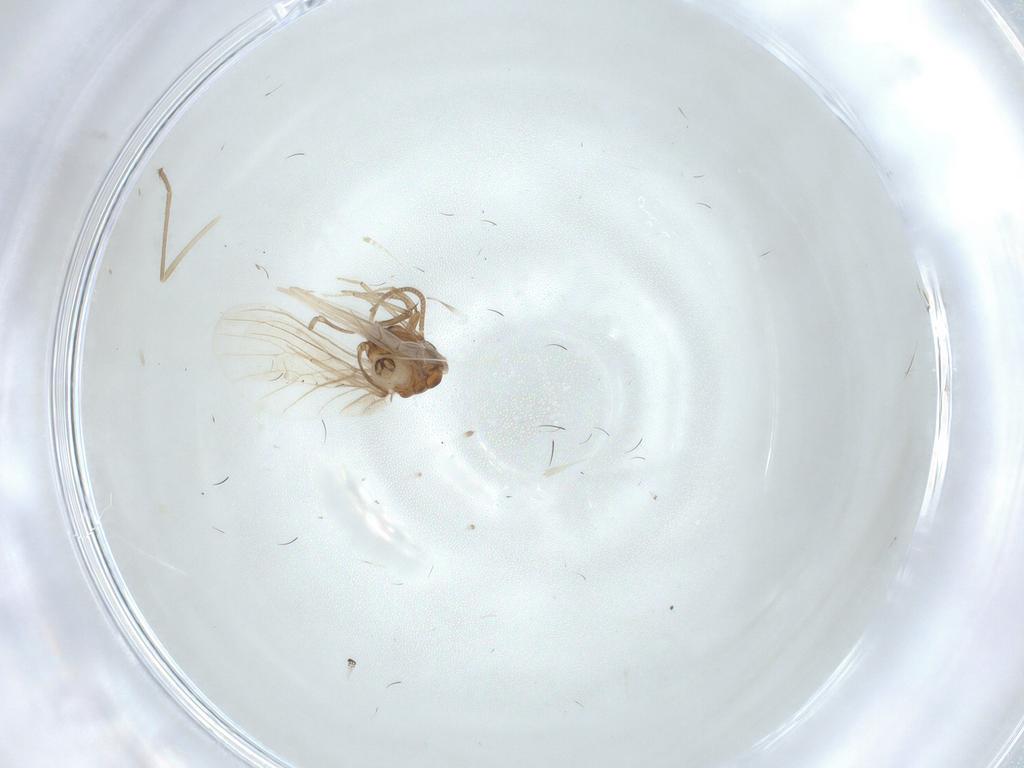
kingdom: Animalia
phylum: Arthropoda
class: Insecta
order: Neuroptera
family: Coniopterygidae
